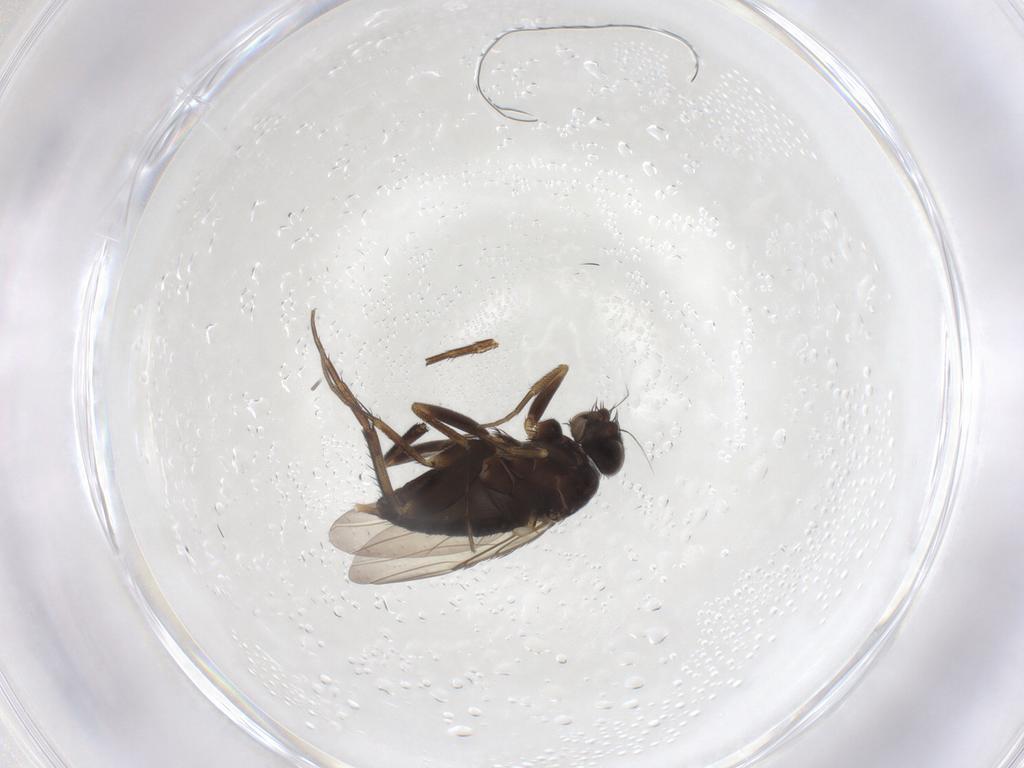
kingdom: Animalia
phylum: Arthropoda
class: Insecta
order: Diptera
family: Phoridae
